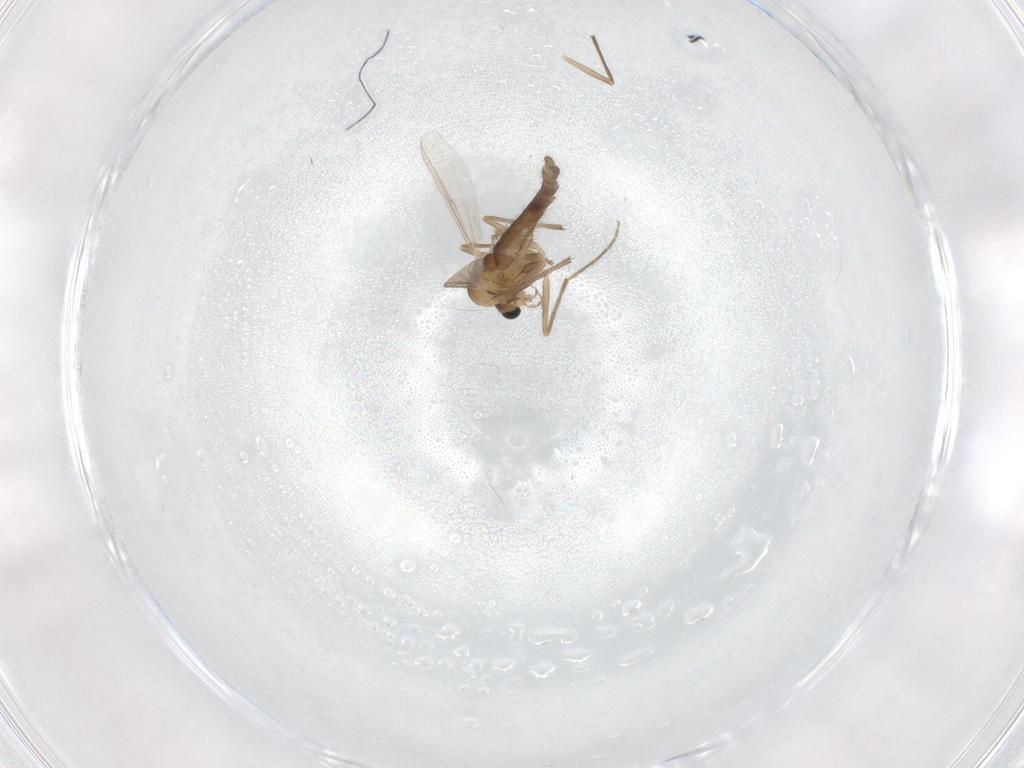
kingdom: Animalia
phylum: Arthropoda
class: Insecta
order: Diptera
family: Chironomidae
